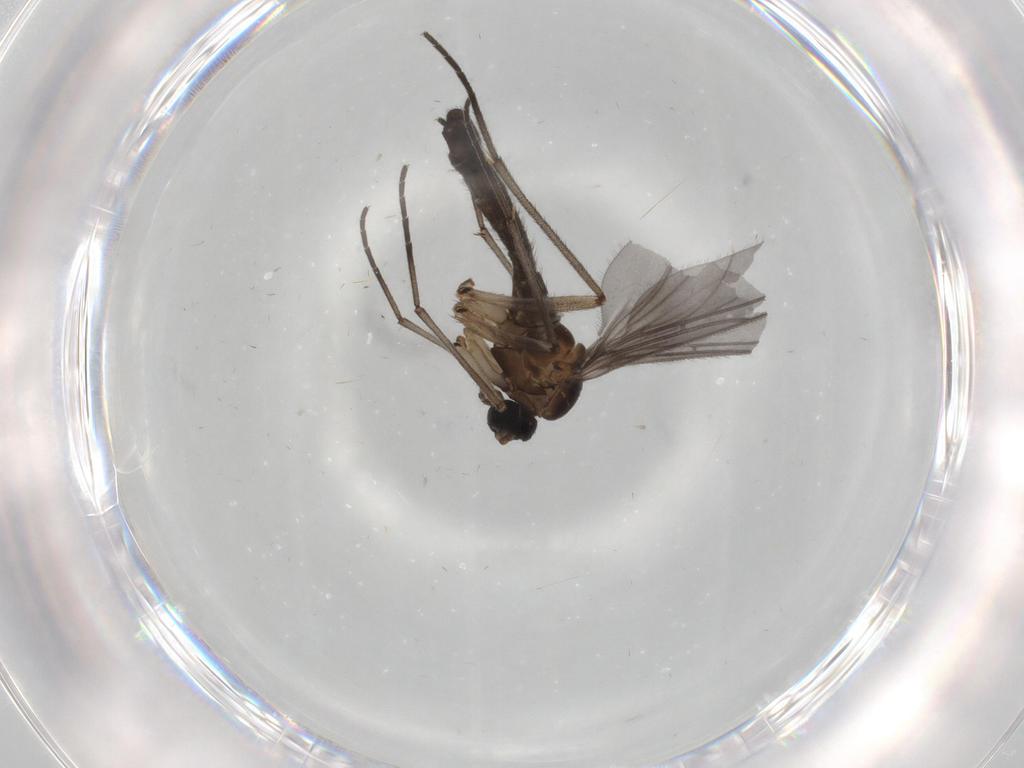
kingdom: Animalia
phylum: Arthropoda
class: Insecta
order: Diptera
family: Sciaridae
